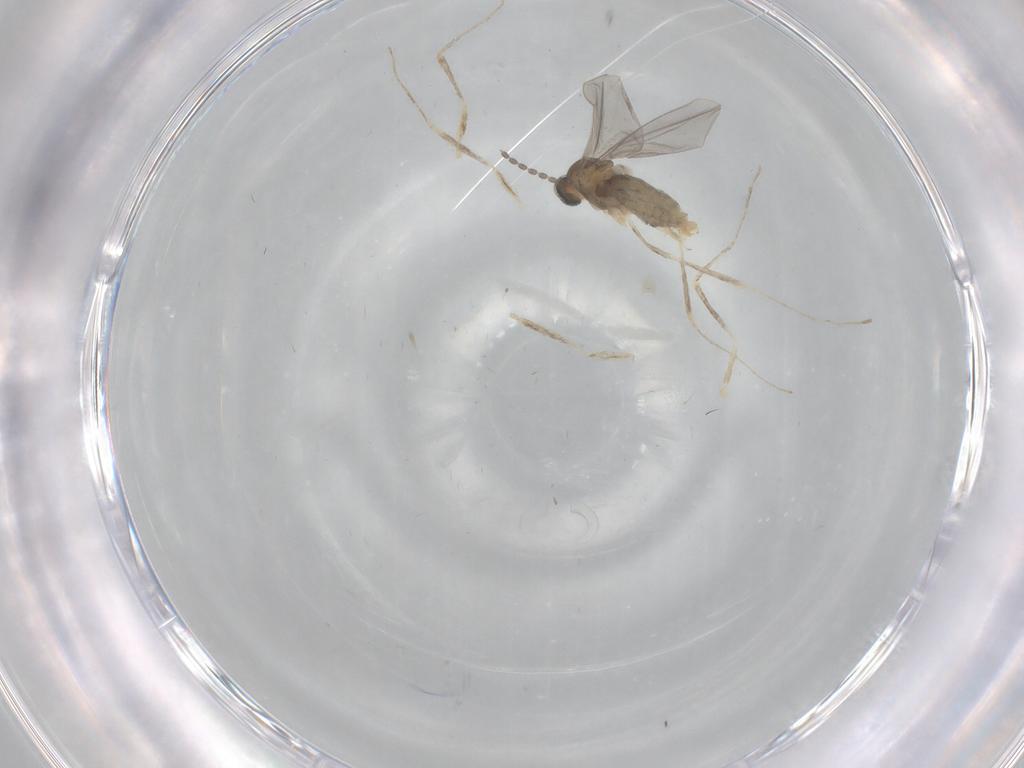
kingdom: Animalia
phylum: Arthropoda
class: Insecta
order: Diptera
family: Cecidomyiidae
